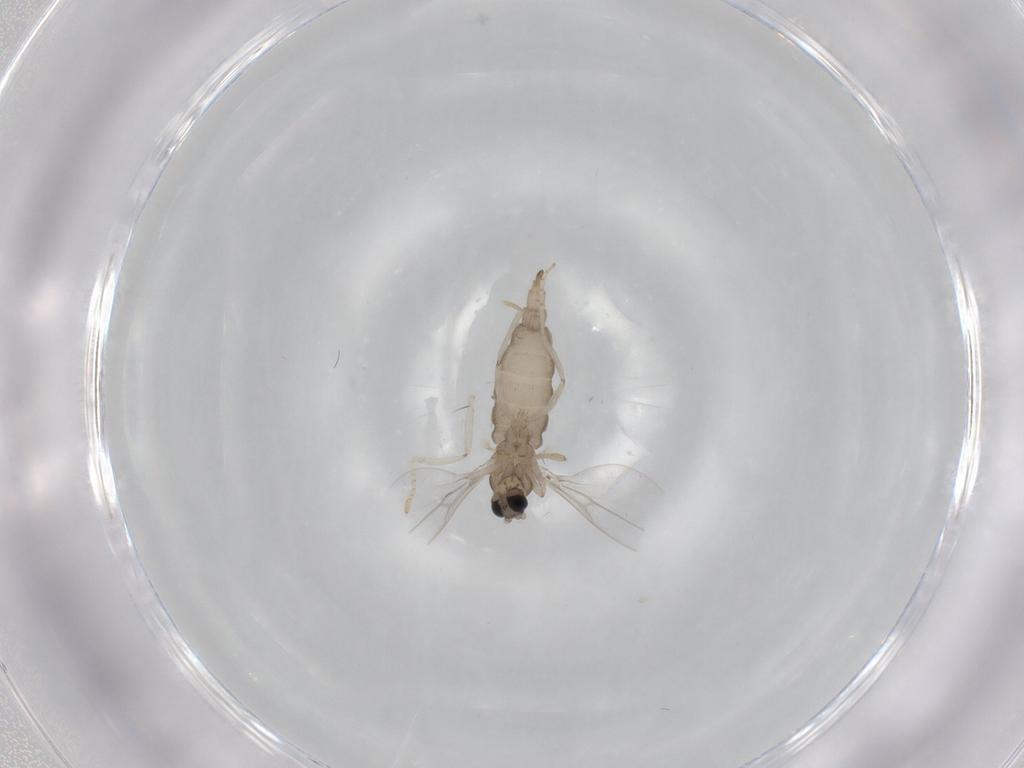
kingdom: Animalia
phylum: Arthropoda
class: Insecta
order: Diptera
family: Cecidomyiidae
